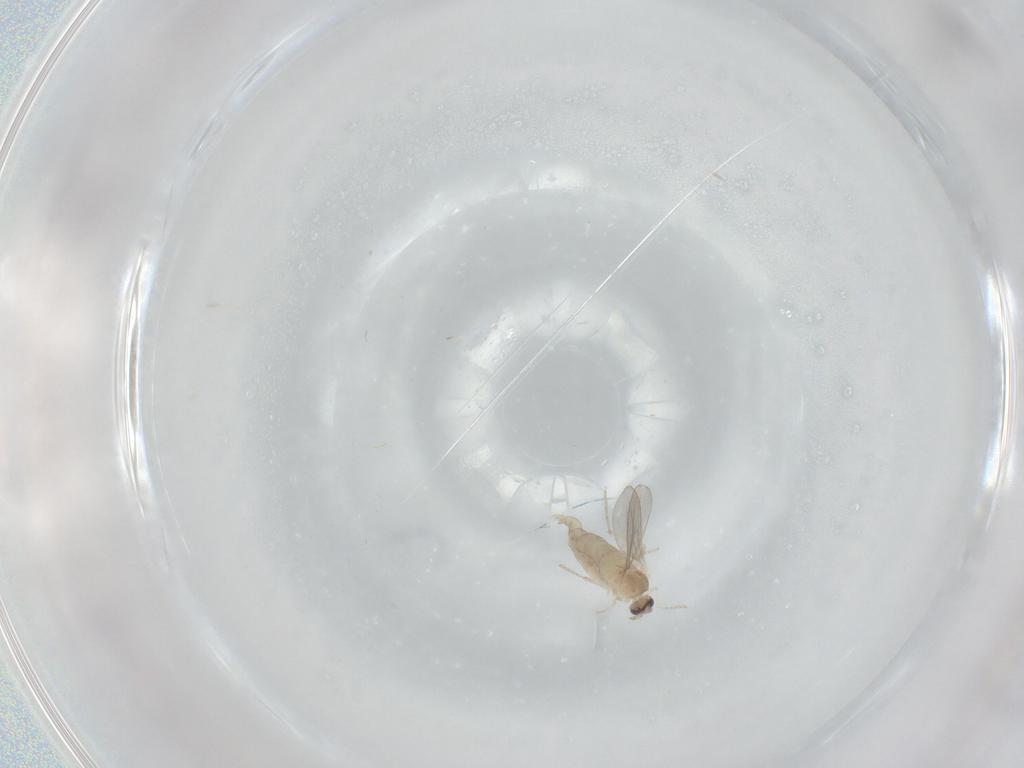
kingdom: Animalia
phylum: Arthropoda
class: Insecta
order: Diptera
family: Cecidomyiidae
